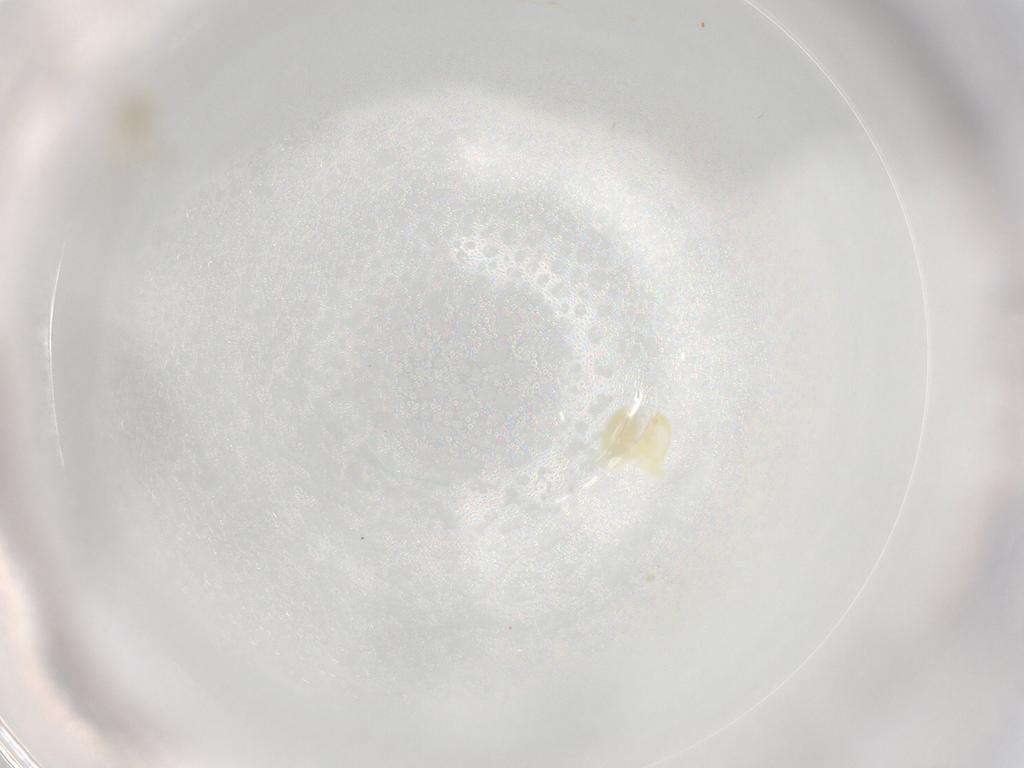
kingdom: Animalia
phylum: Arthropoda
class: Insecta
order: Diptera
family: Chironomidae
